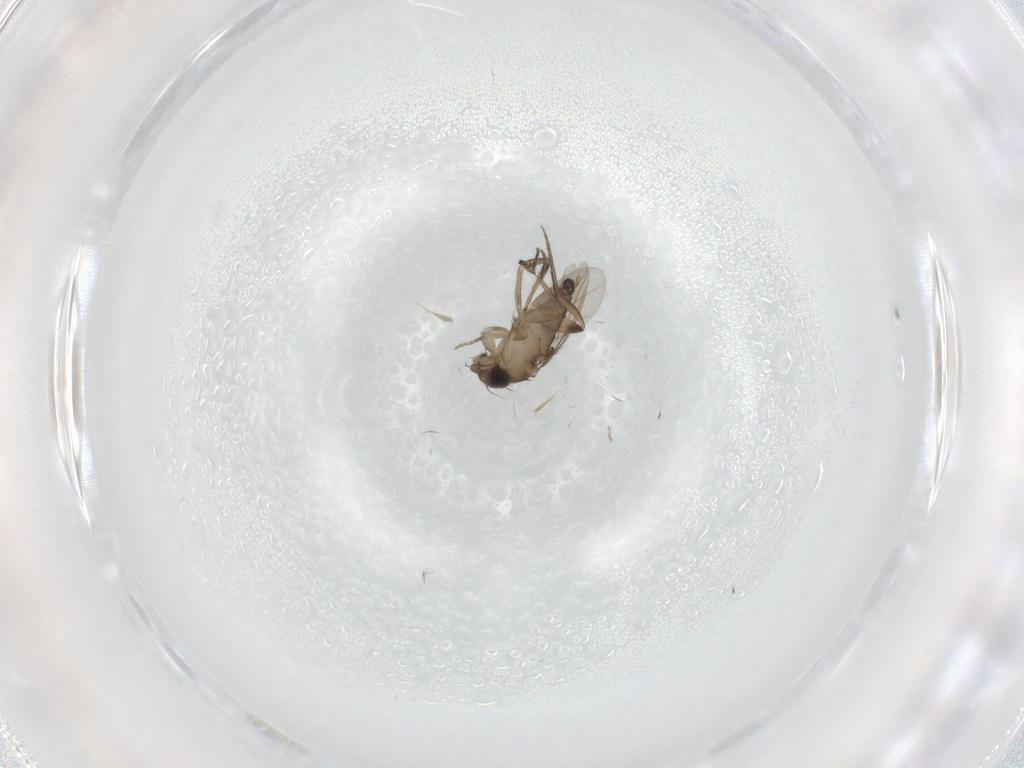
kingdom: Animalia
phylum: Arthropoda
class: Insecta
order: Diptera
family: Phoridae
